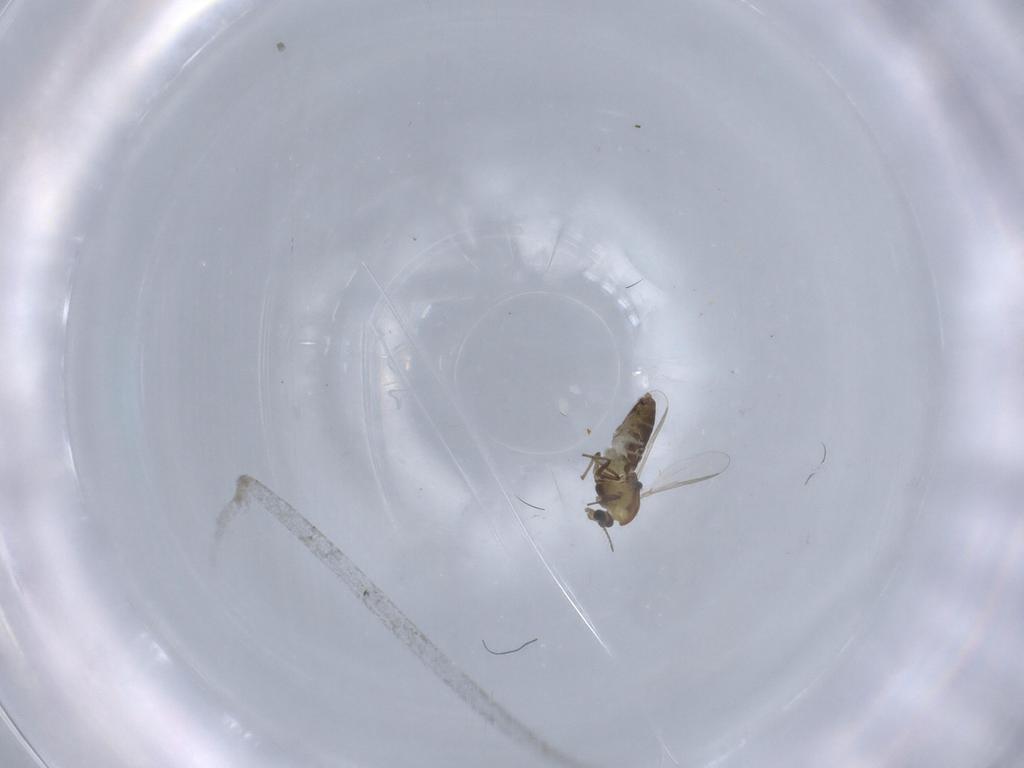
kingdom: Animalia
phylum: Arthropoda
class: Insecta
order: Diptera
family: Chironomidae
